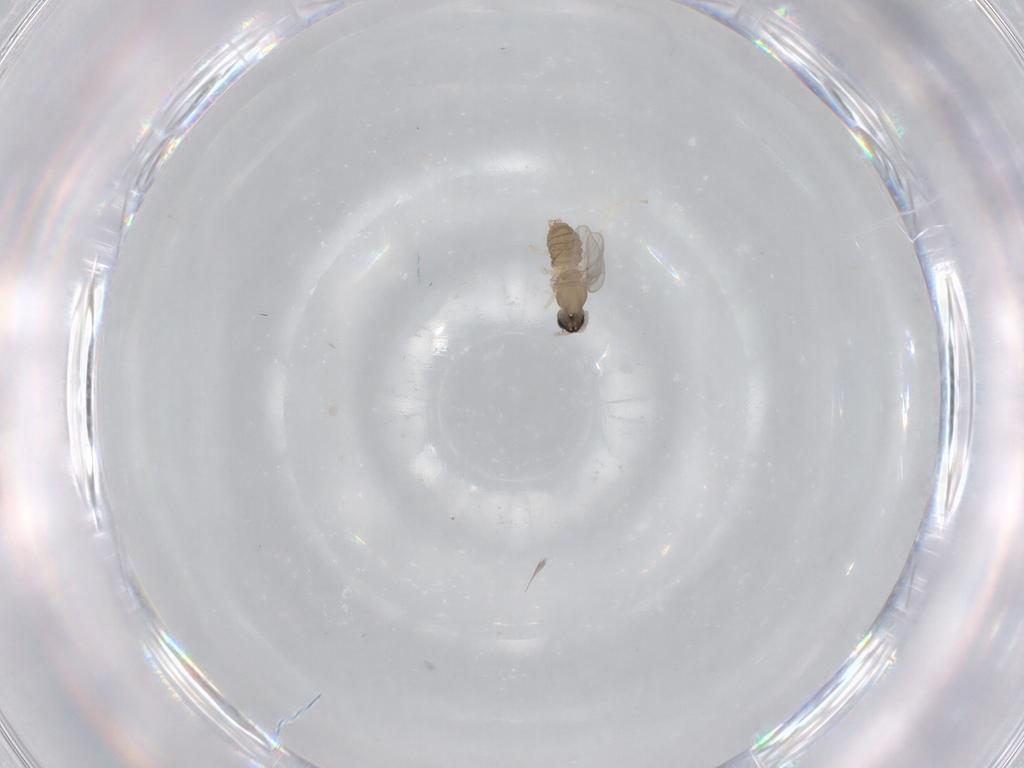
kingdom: Animalia
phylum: Arthropoda
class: Insecta
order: Diptera
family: Cecidomyiidae
